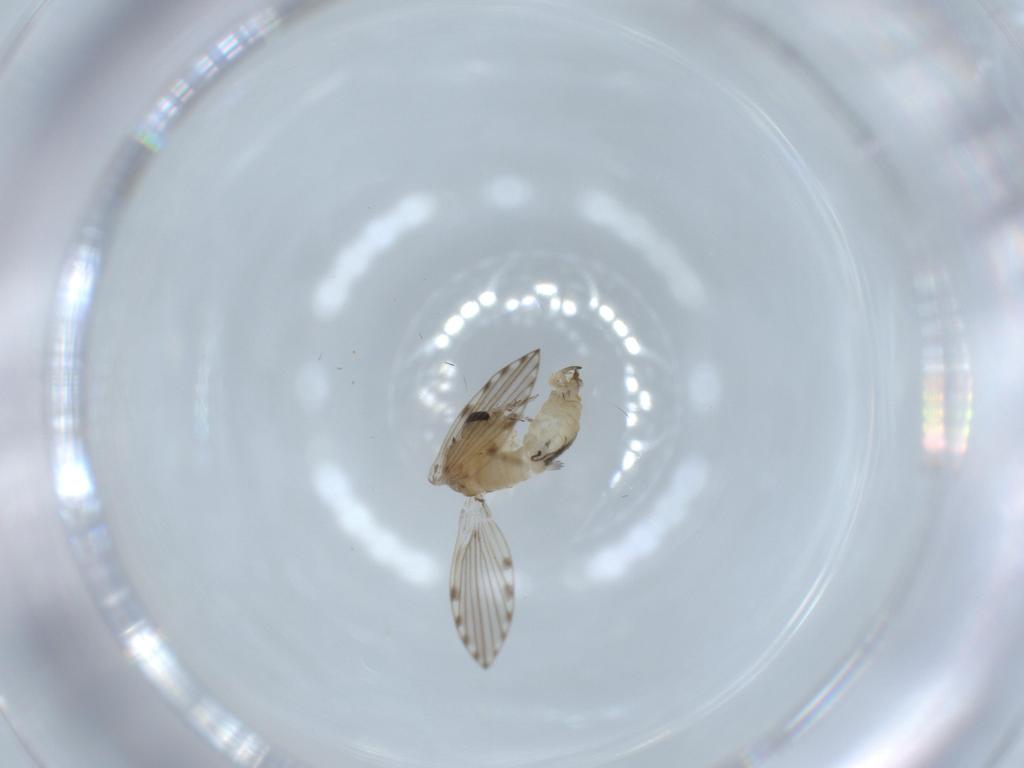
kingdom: Animalia
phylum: Arthropoda
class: Insecta
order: Diptera
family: Psychodidae
